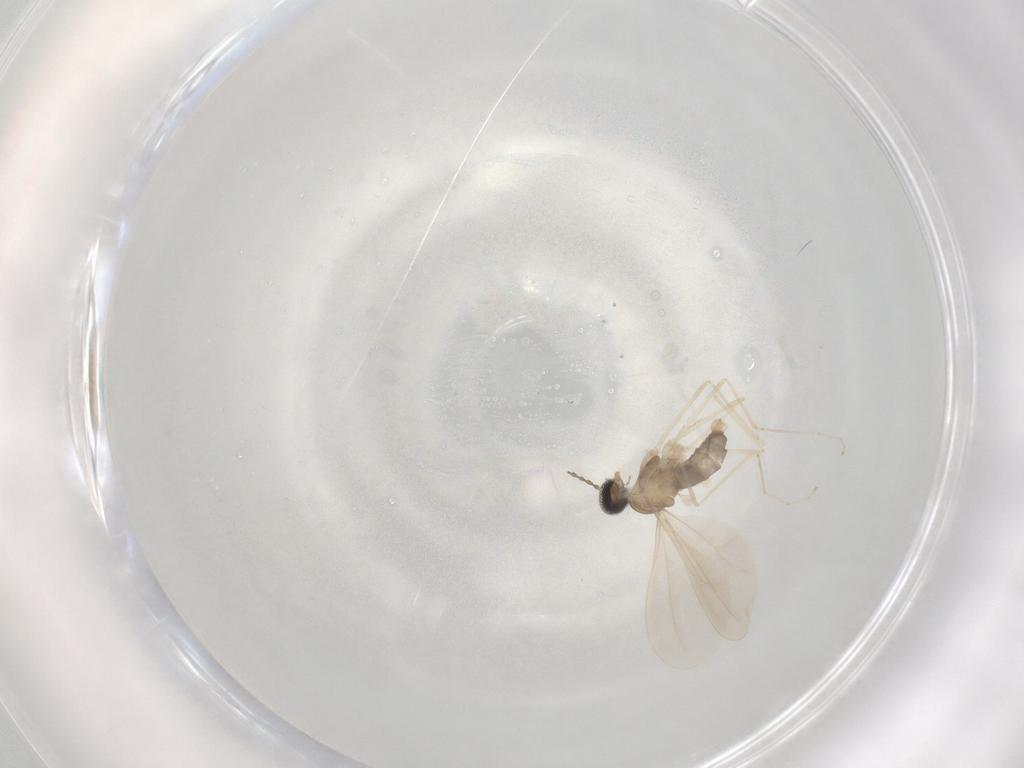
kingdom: Animalia
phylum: Arthropoda
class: Insecta
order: Diptera
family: Cecidomyiidae
